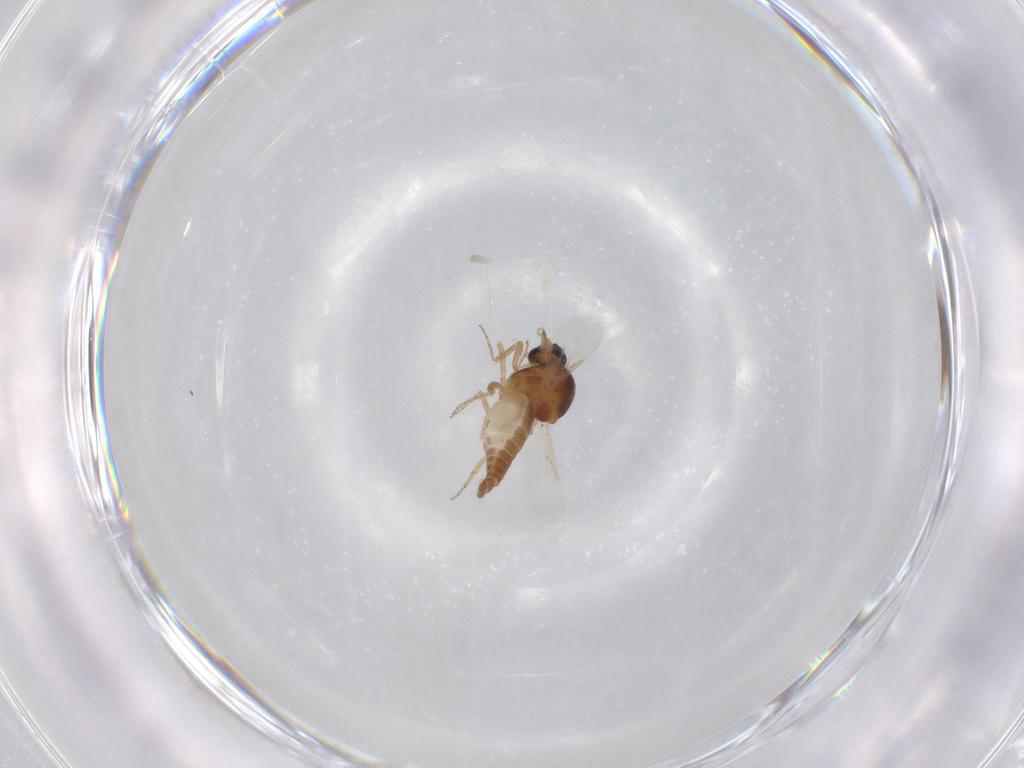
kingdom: Animalia
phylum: Arthropoda
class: Insecta
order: Diptera
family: Ceratopogonidae
